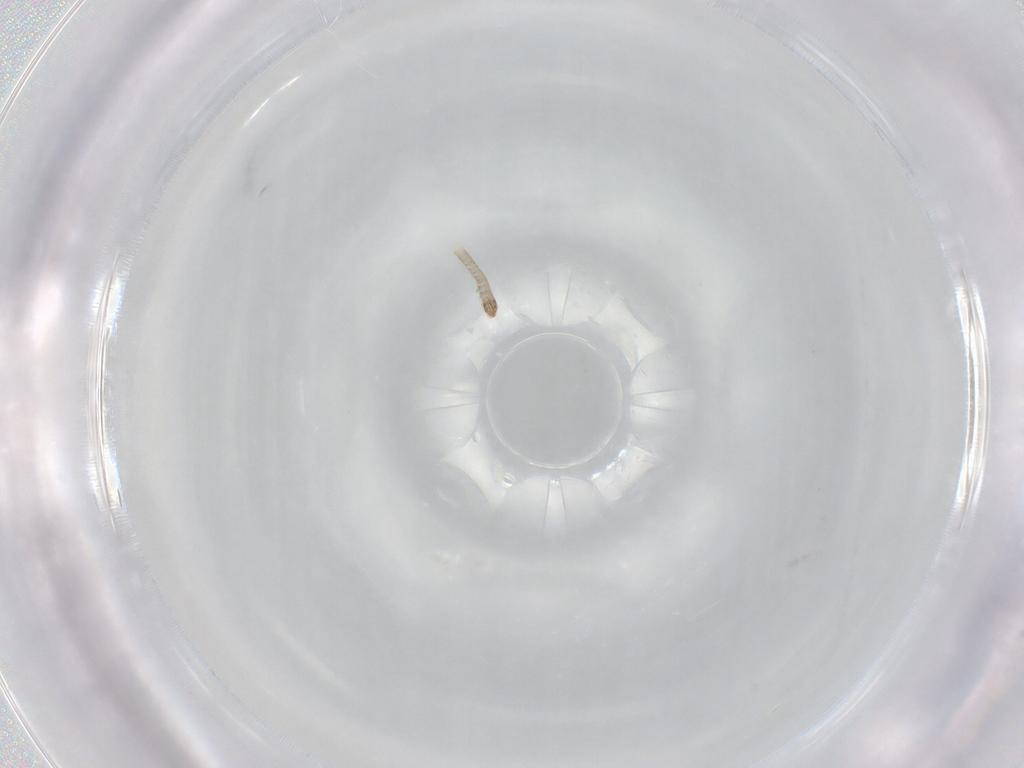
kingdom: Animalia
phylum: Arthropoda
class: Insecta
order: Lepidoptera
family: Tineidae
